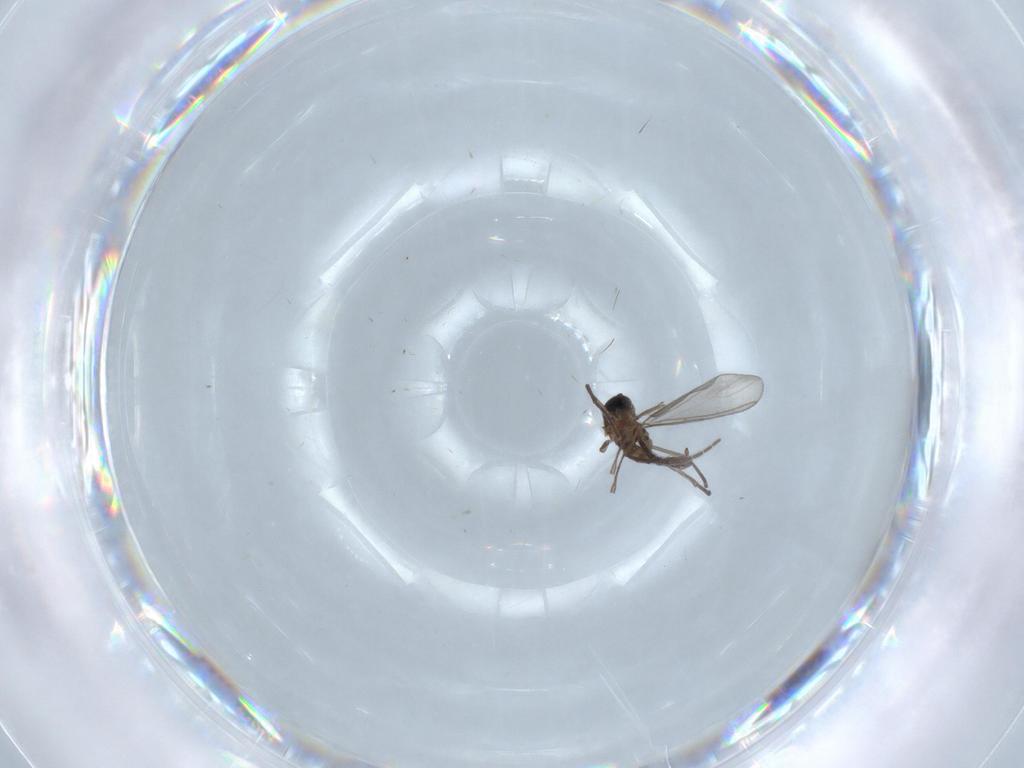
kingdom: Animalia
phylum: Arthropoda
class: Insecta
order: Diptera
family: Sciaridae
